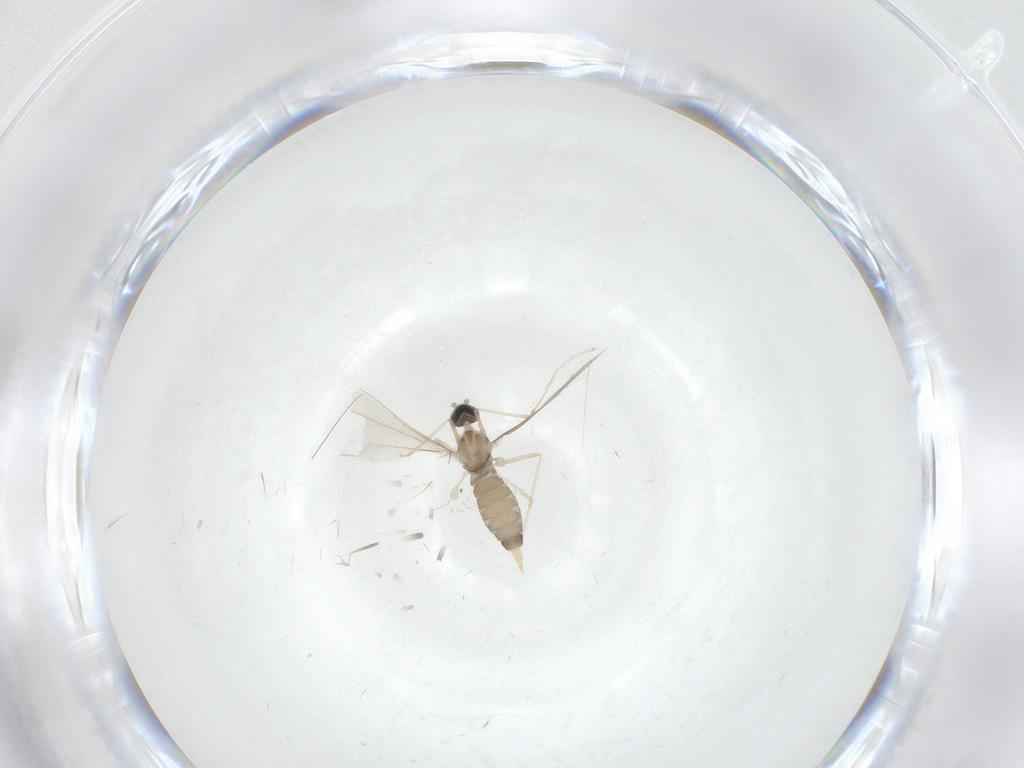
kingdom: Animalia
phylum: Arthropoda
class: Insecta
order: Diptera
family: Cecidomyiidae
